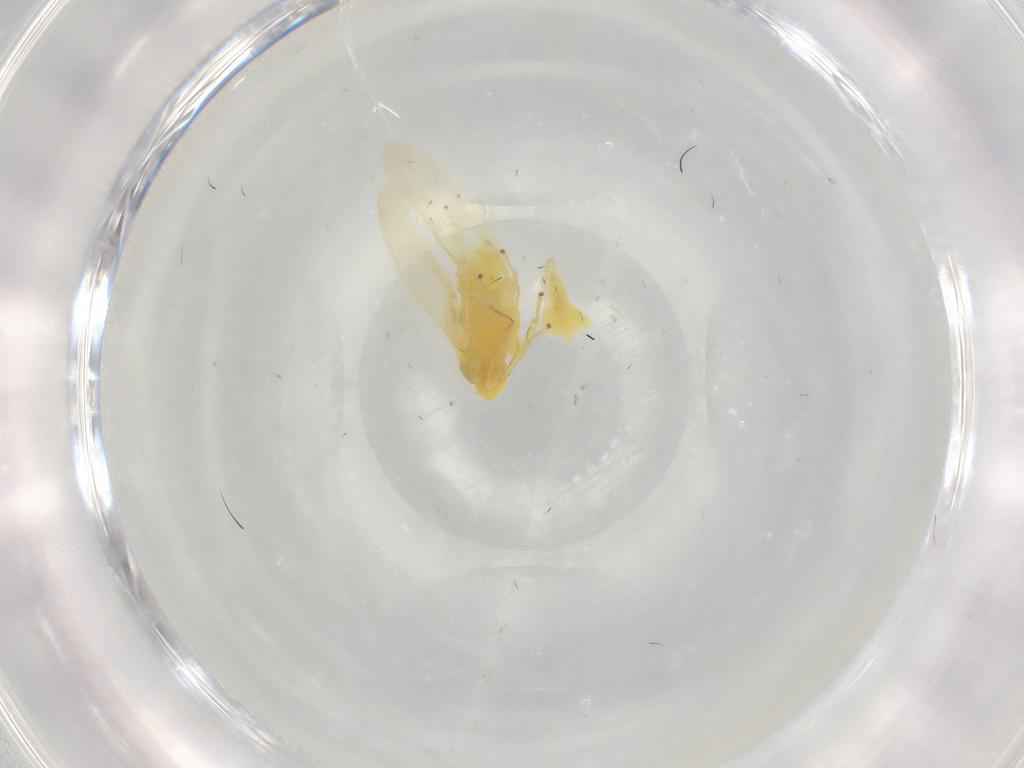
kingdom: Animalia
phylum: Arthropoda
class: Insecta
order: Hemiptera
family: Cicadellidae
